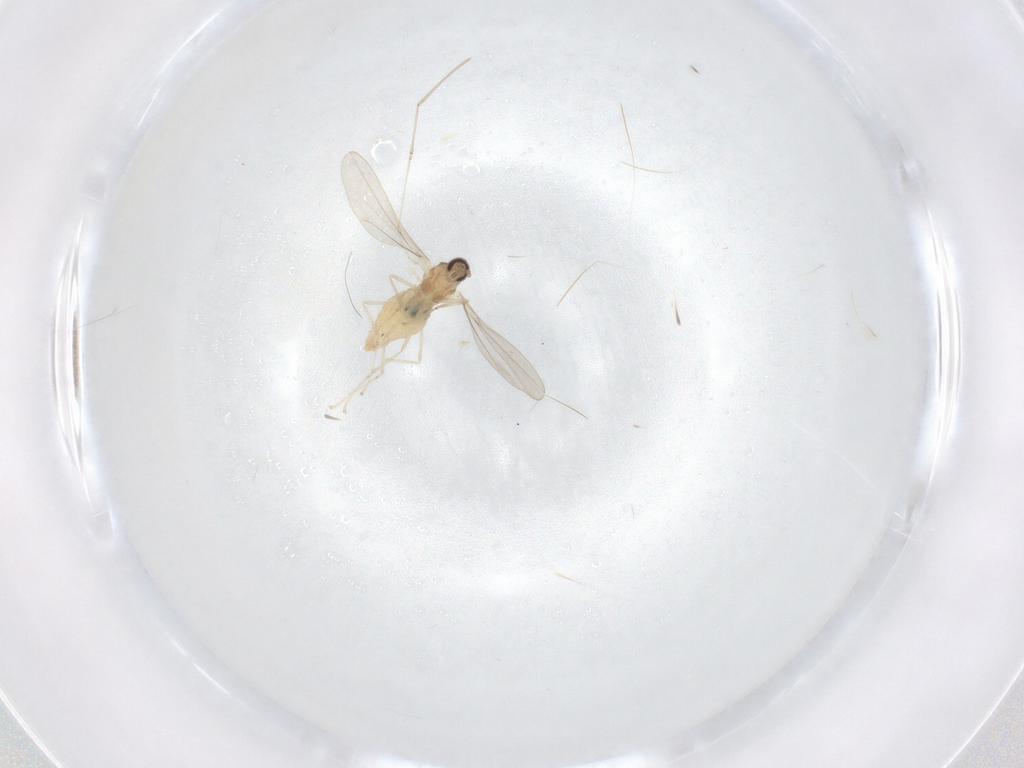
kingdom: Animalia
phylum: Arthropoda
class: Insecta
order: Diptera
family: Cecidomyiidae
